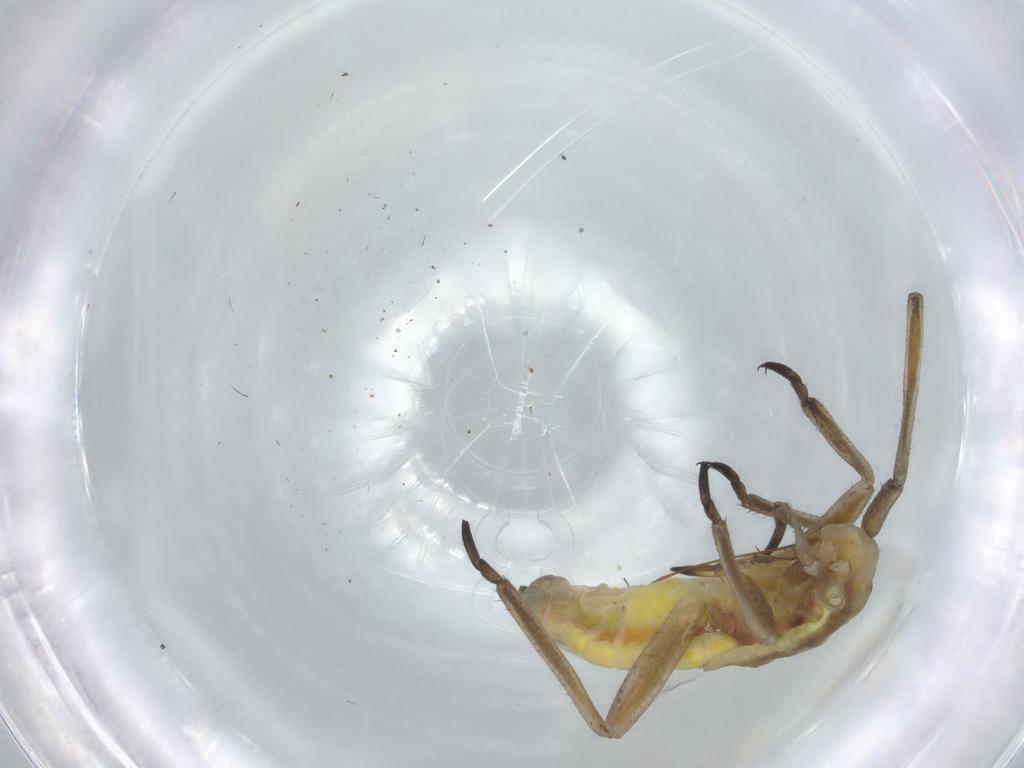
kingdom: Animalia
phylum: Arthropoda
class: Insecta
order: Hemiptera
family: Miridae
